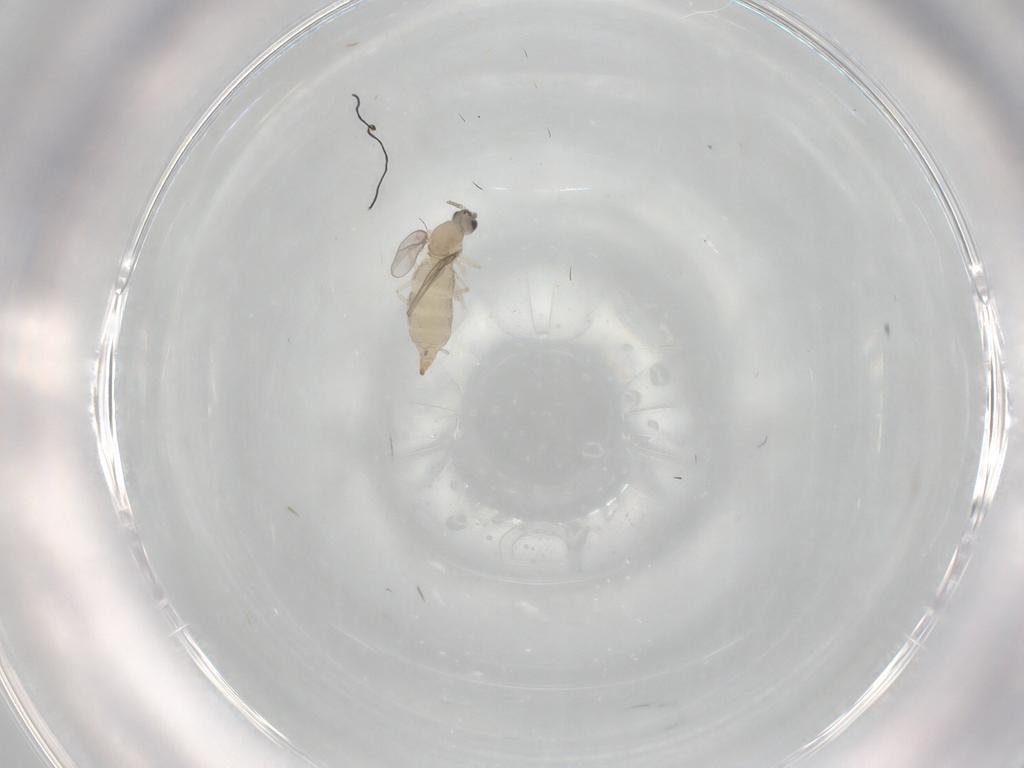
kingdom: Animalia
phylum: Arthropoda
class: Insecta
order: Diptera
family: Cecidomyiidae
